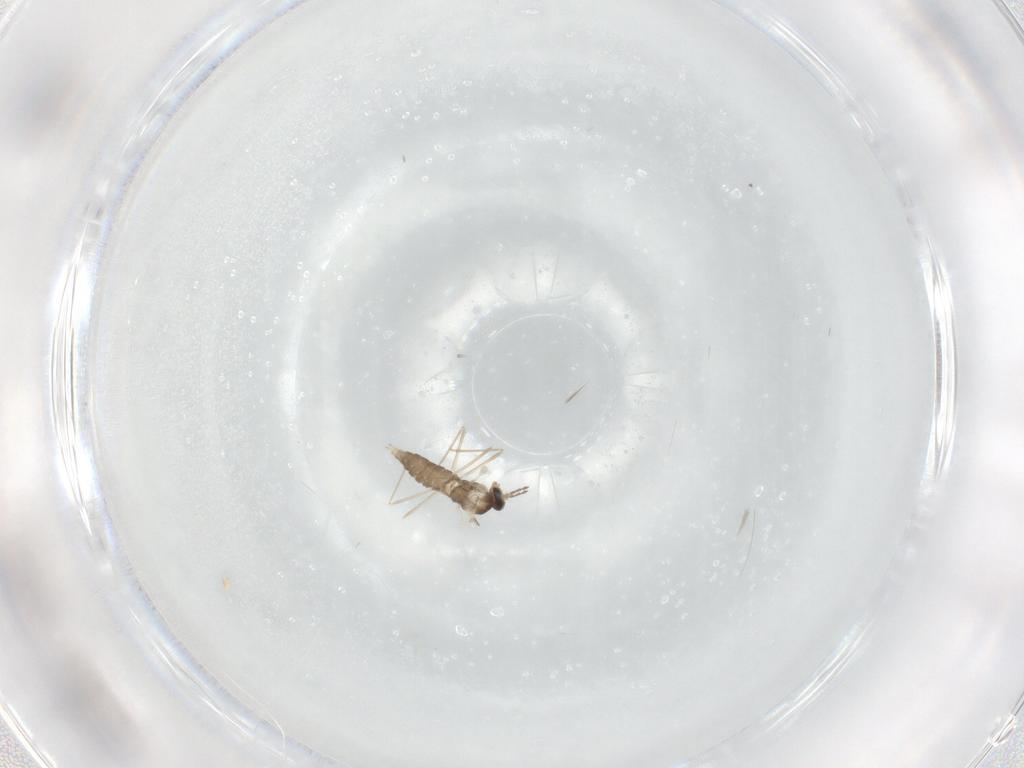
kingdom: Animalia
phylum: Arthropoda
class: Insecta
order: Diptera
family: Cecidomyiidae
